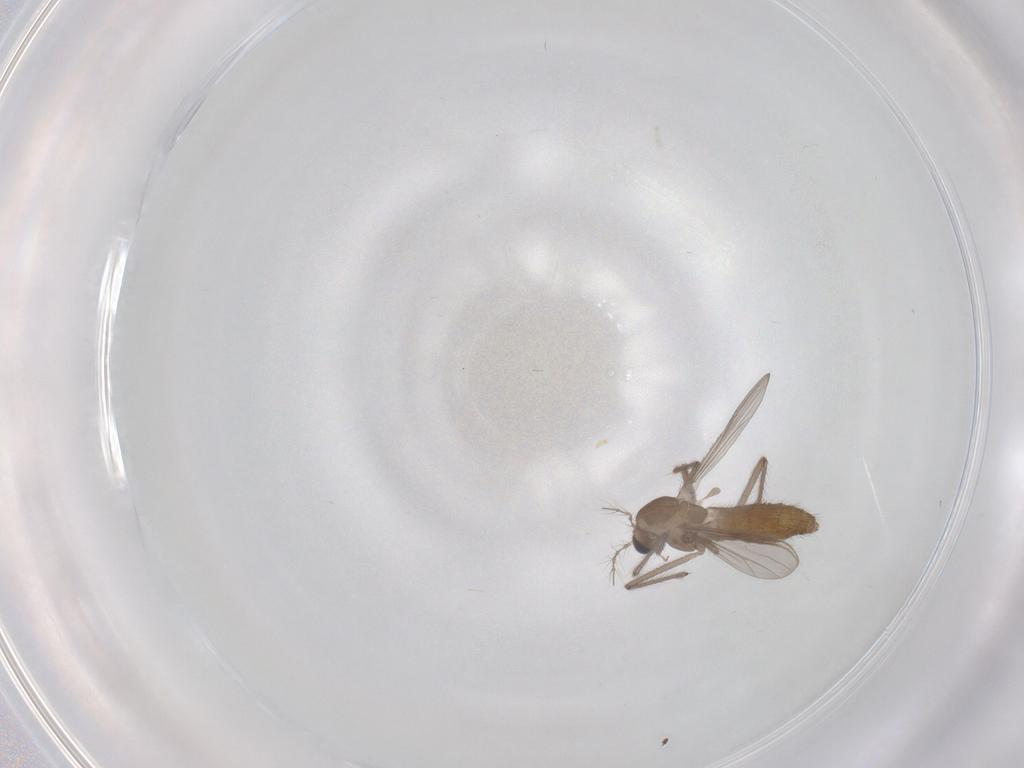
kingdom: Animalia
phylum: Arthropoda
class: Insecta
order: Diptera
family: Chironomidae
